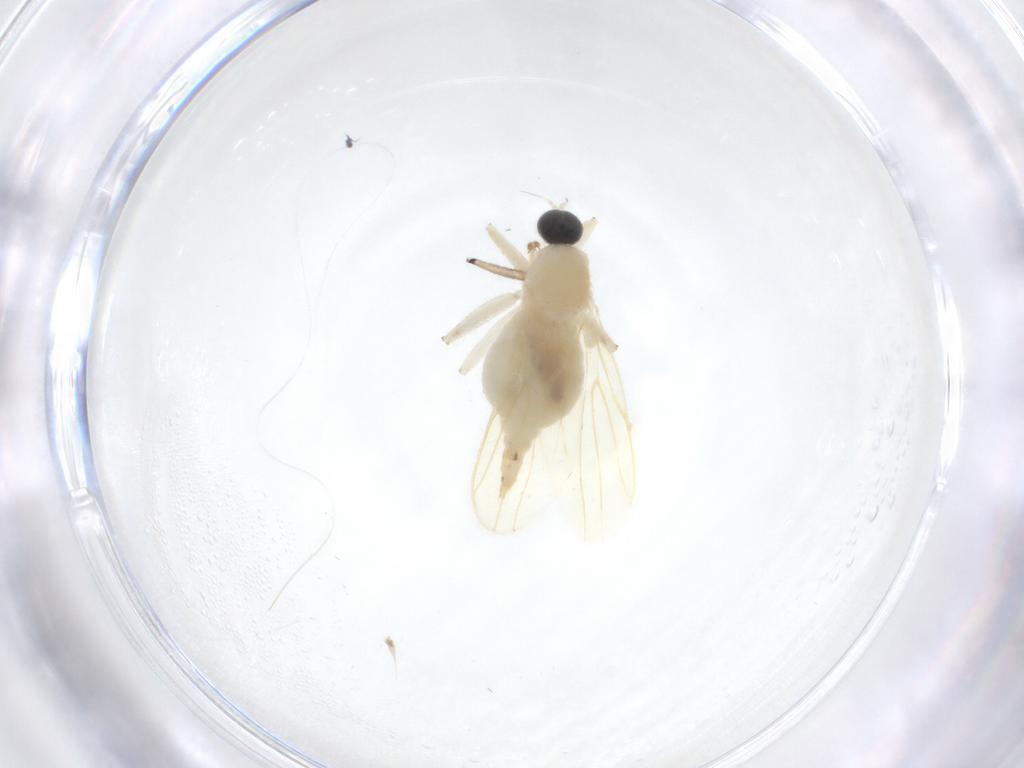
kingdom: Animalia
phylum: Arthropoda
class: Insecta
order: Diptera
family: Hybotidae
